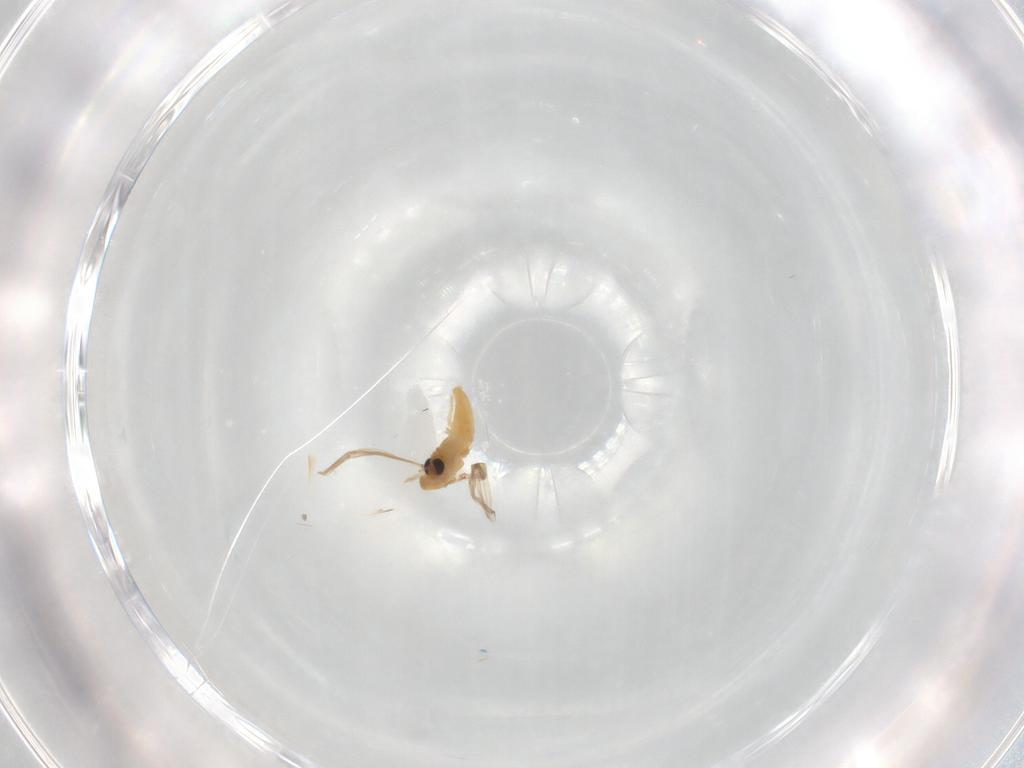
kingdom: Animalia
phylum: Arthropoda
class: Insecta
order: Diptera
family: Chironomidae
